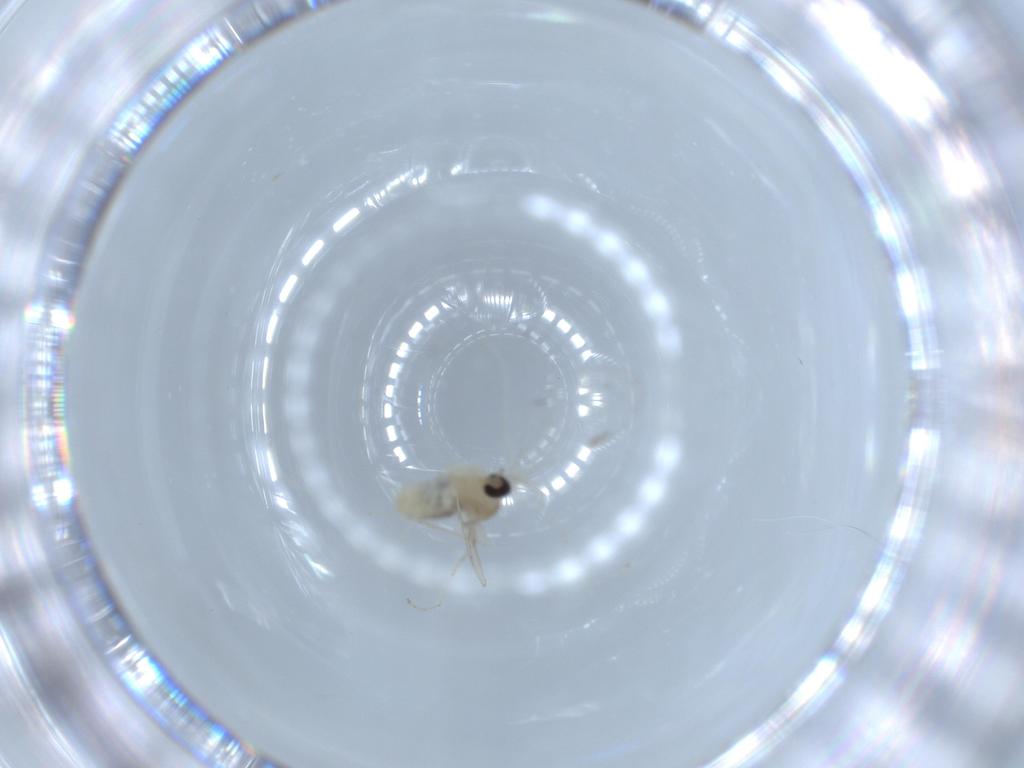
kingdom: Animalia
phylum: Arthropoda
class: Insecta
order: Diptera
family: Cecidomyiidae
